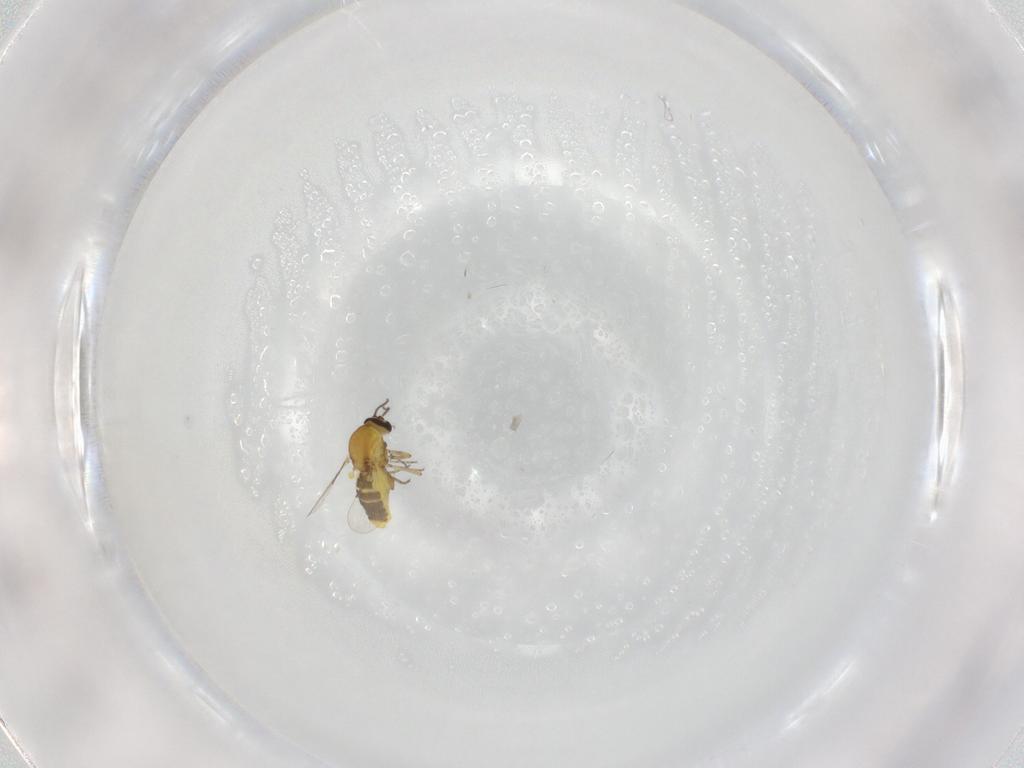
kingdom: Animalia
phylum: Arthropoda
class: Insecta
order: Diptera
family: Ceratopogonidae
